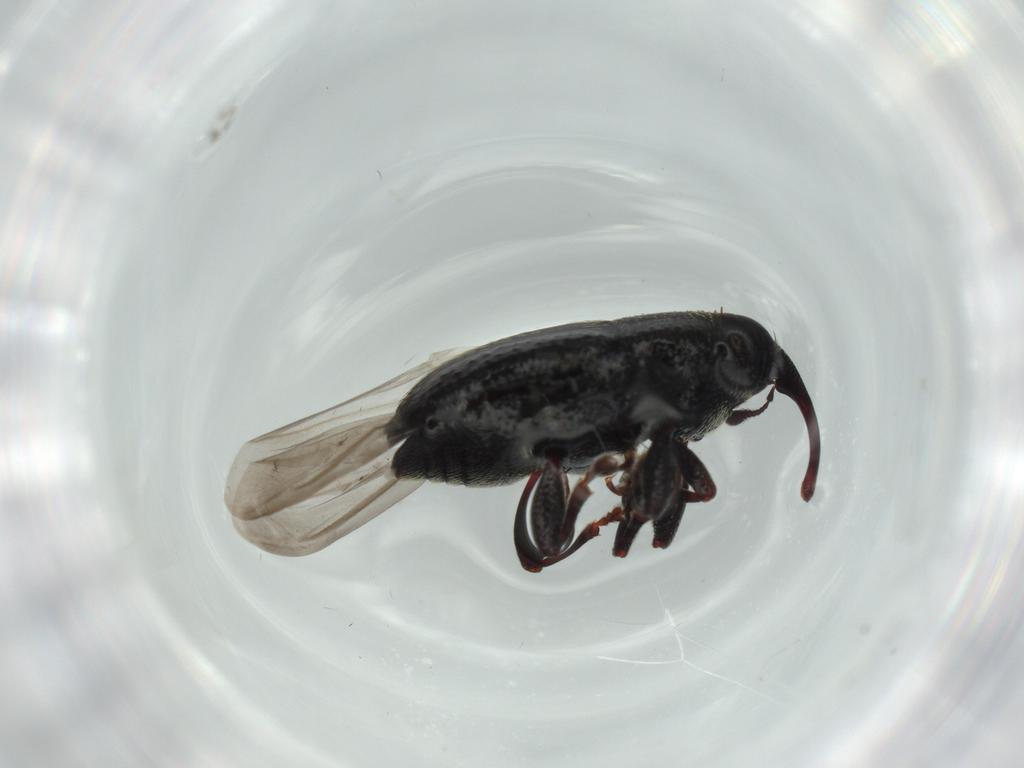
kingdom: Animalia
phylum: Arthropoda
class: Insecta
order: Coleoptera
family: Curculionidae
